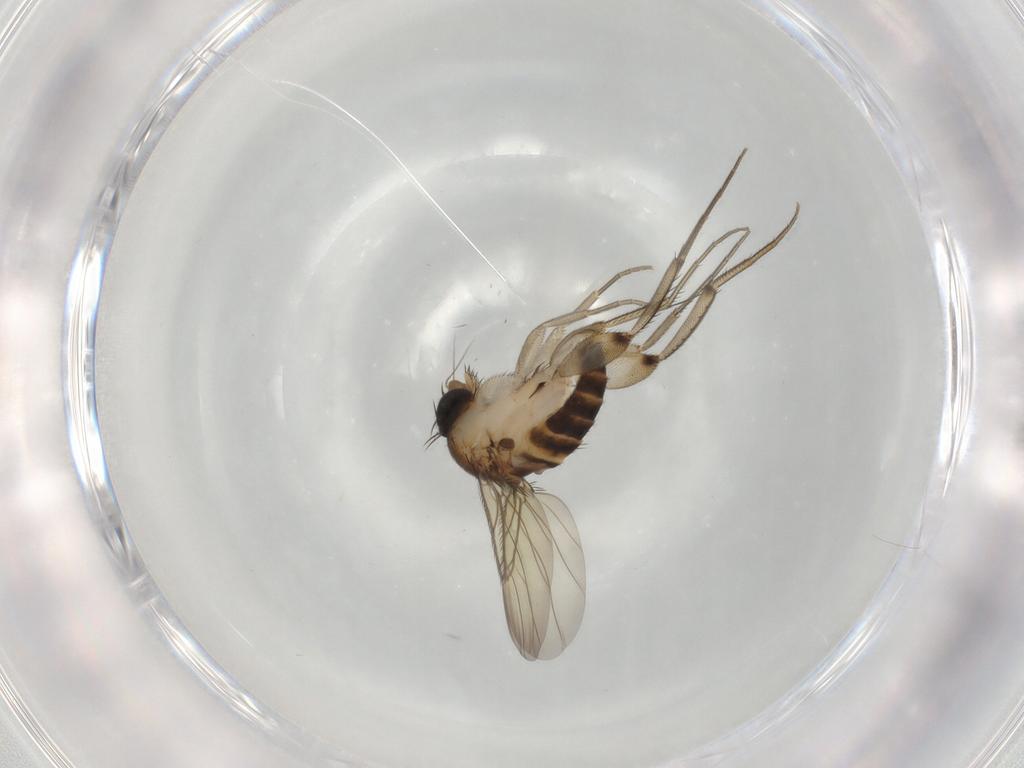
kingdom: Animalia
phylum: Arthropoda
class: Insecta
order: Diptera
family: Phoridae
